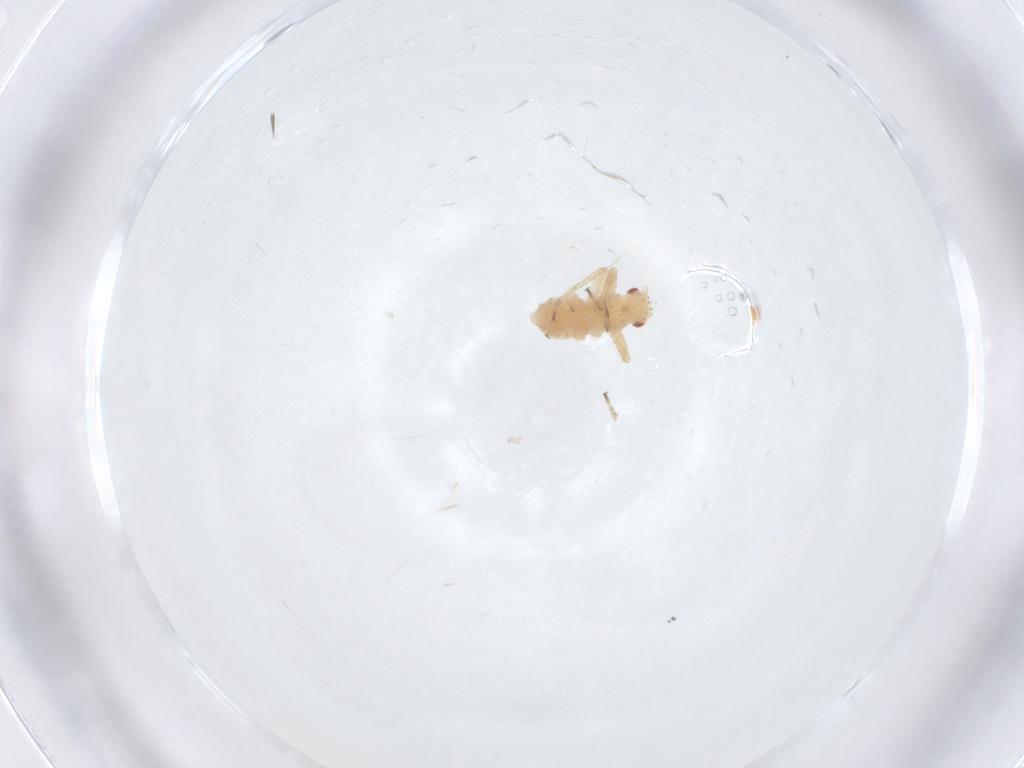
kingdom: Animalia
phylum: Arthropoda
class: Insecta
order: Hemiptera
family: Aphididae
